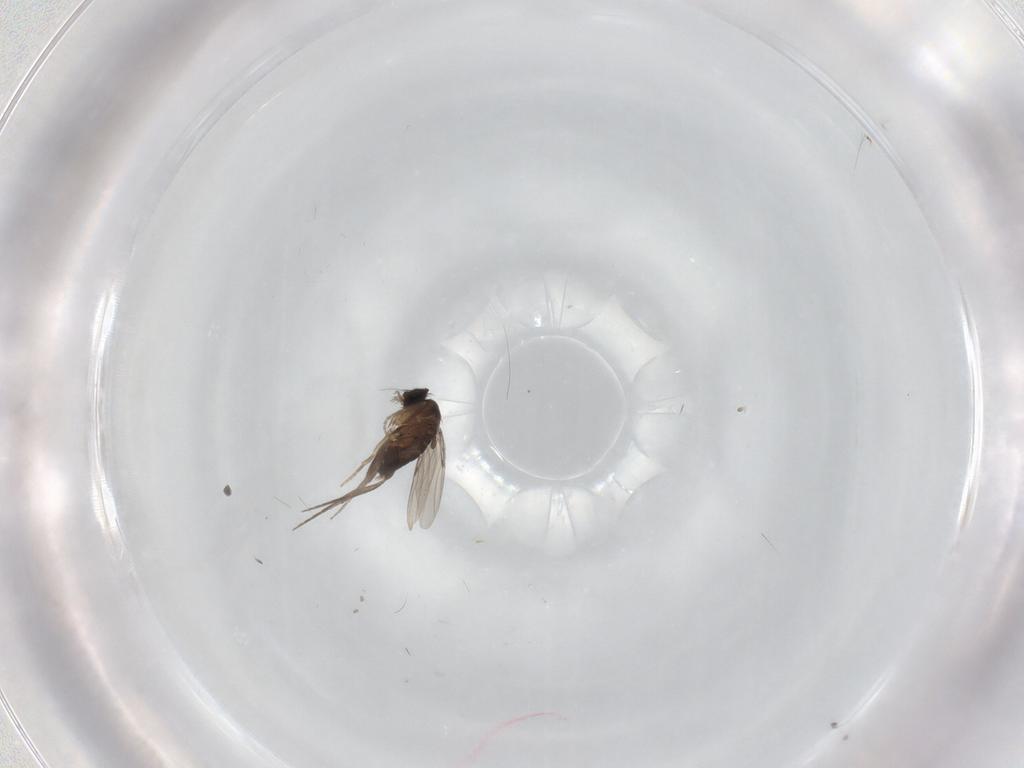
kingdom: Animalia
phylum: Arthropoda
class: Insecta
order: Diptera
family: Phoridae
